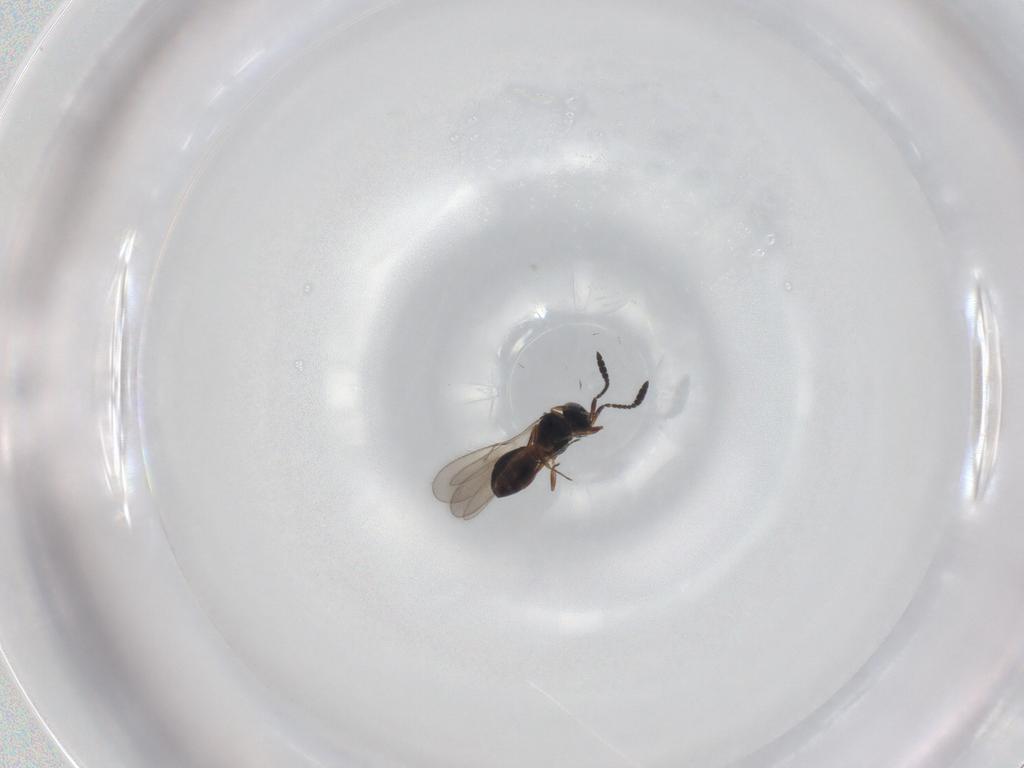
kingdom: Animalia
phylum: Arthropoda
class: Insecta
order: Hymenoptera
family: Scelionidae
